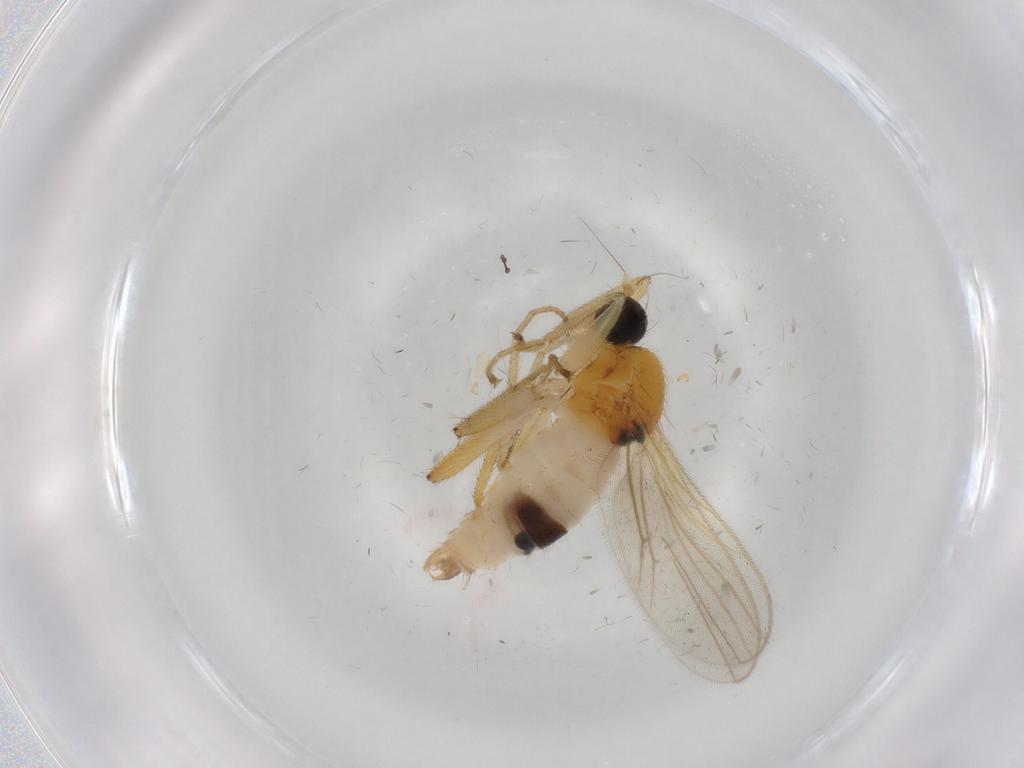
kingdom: Animalia
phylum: Arthropoda
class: Insecta
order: Diptera
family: Hybotidae
